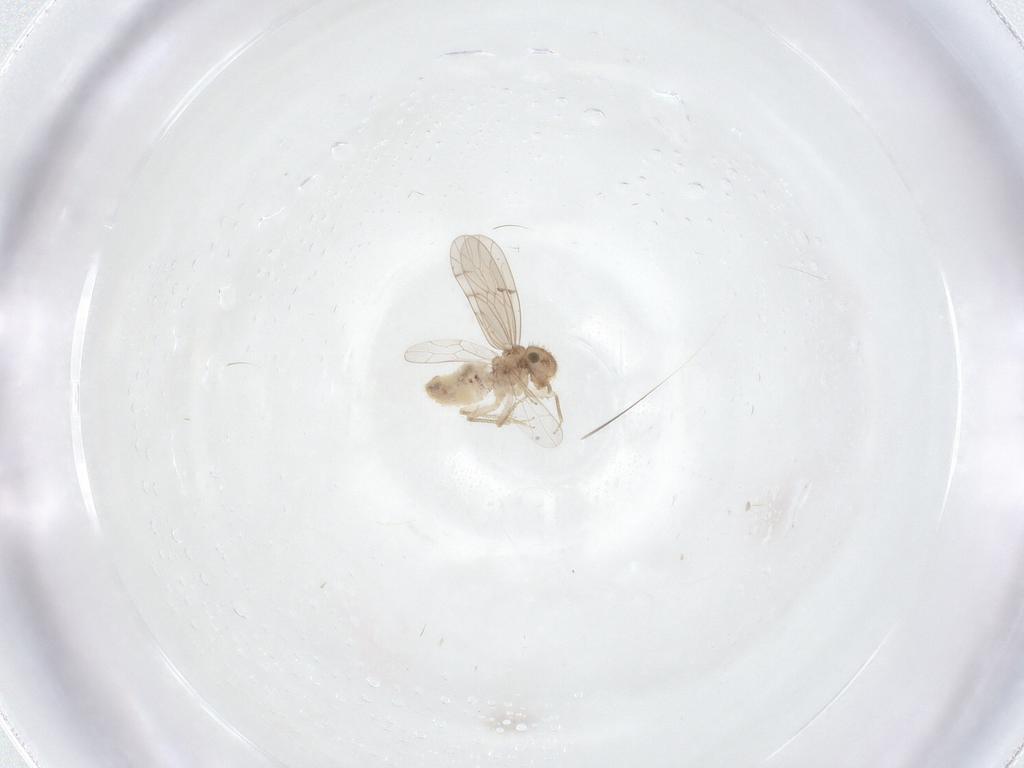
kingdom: Animalia
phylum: Arthropoda
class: Insecta
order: Psocodea
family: Ectopsocidae
